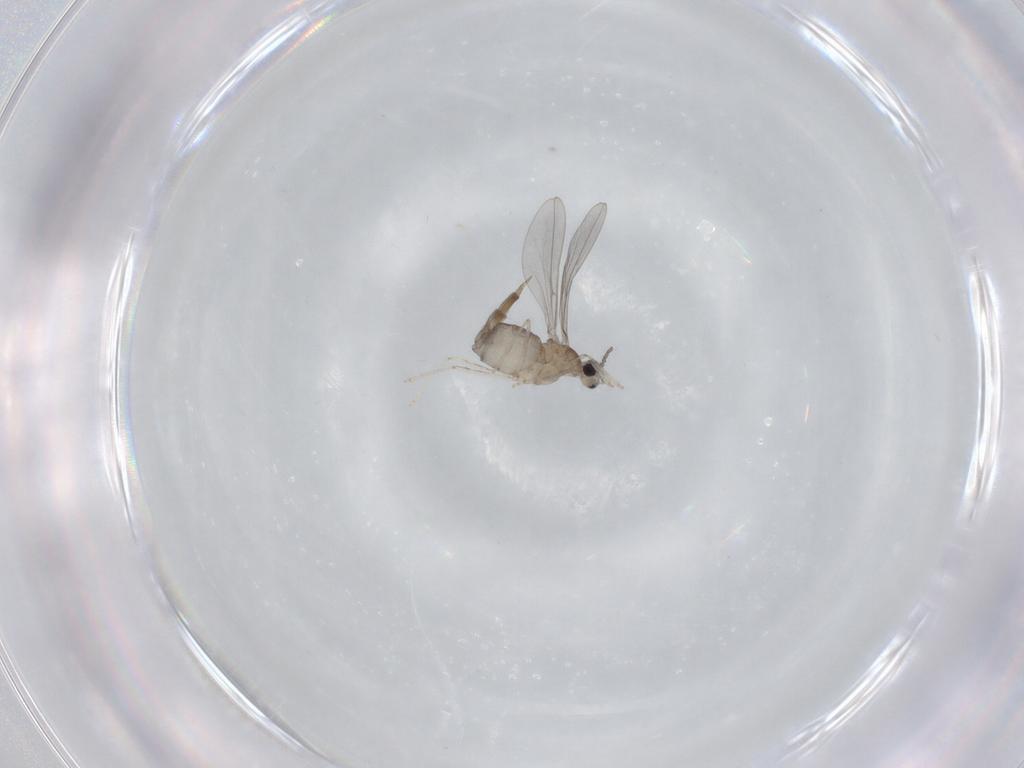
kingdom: Animalia
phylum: Arthropoda
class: Insecta
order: Diptera
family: Cecidomyiidae
